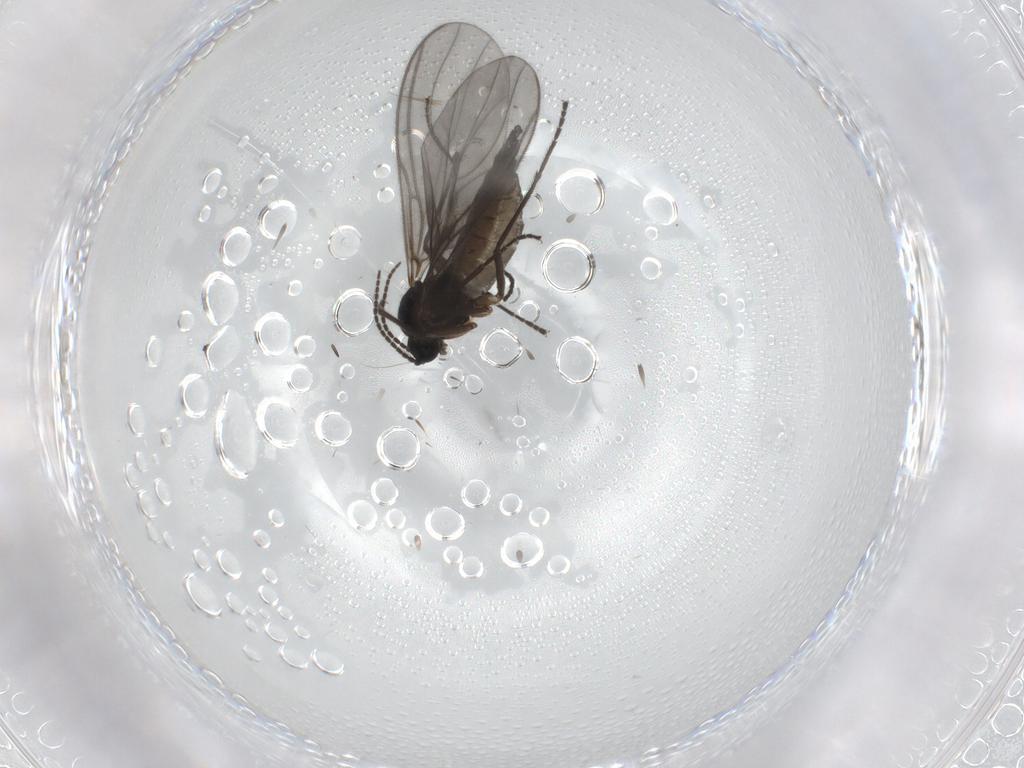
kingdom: Animalia
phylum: Arthropoda
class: Insecta
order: Diptera
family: Sciaridae
